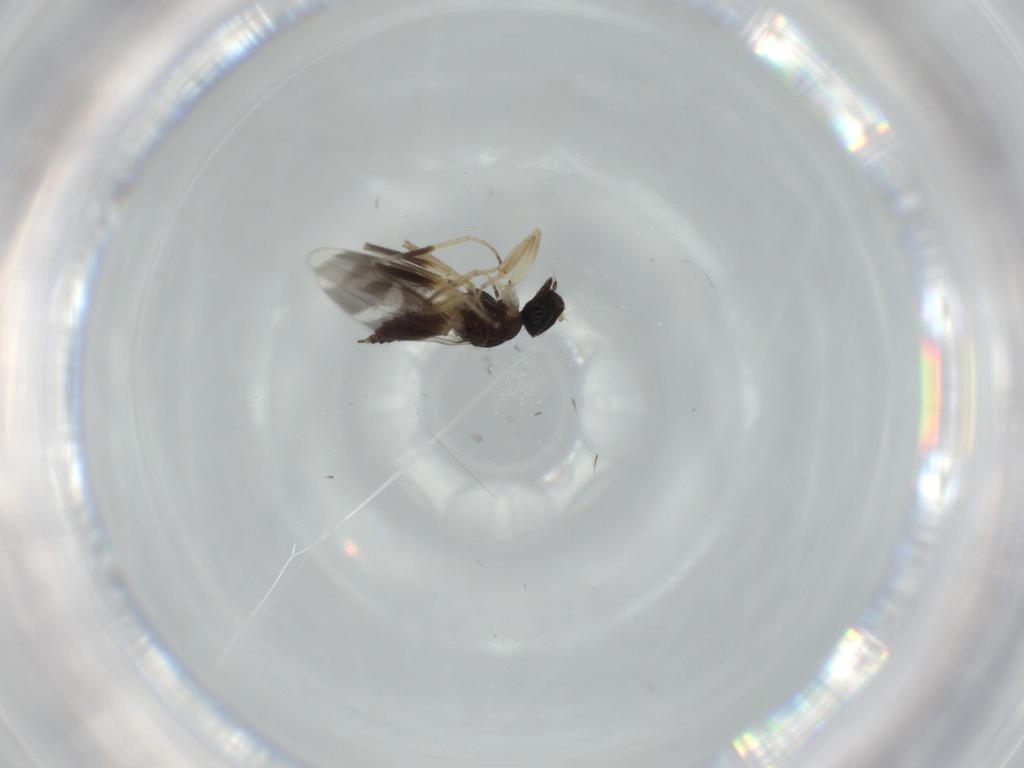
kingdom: Animalia
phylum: Arthropoda
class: Insecta
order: Diptera
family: Hybotidae
